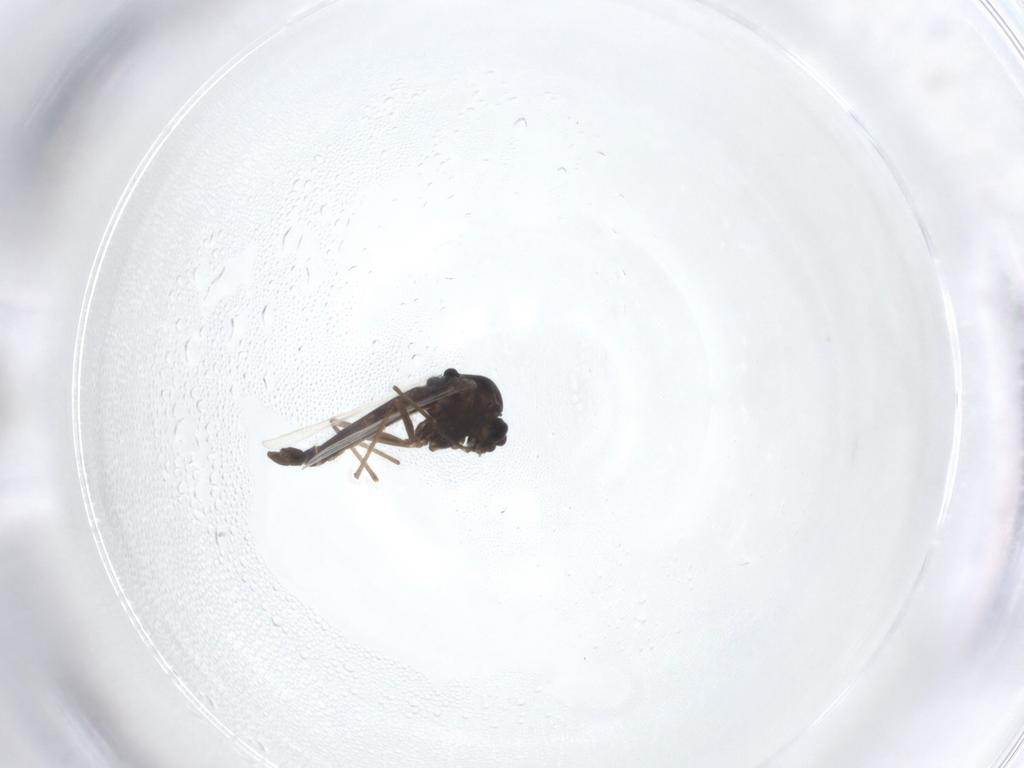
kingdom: Animalia
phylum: Arthropoda
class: Insecta
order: Diptera
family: Chironomidae
